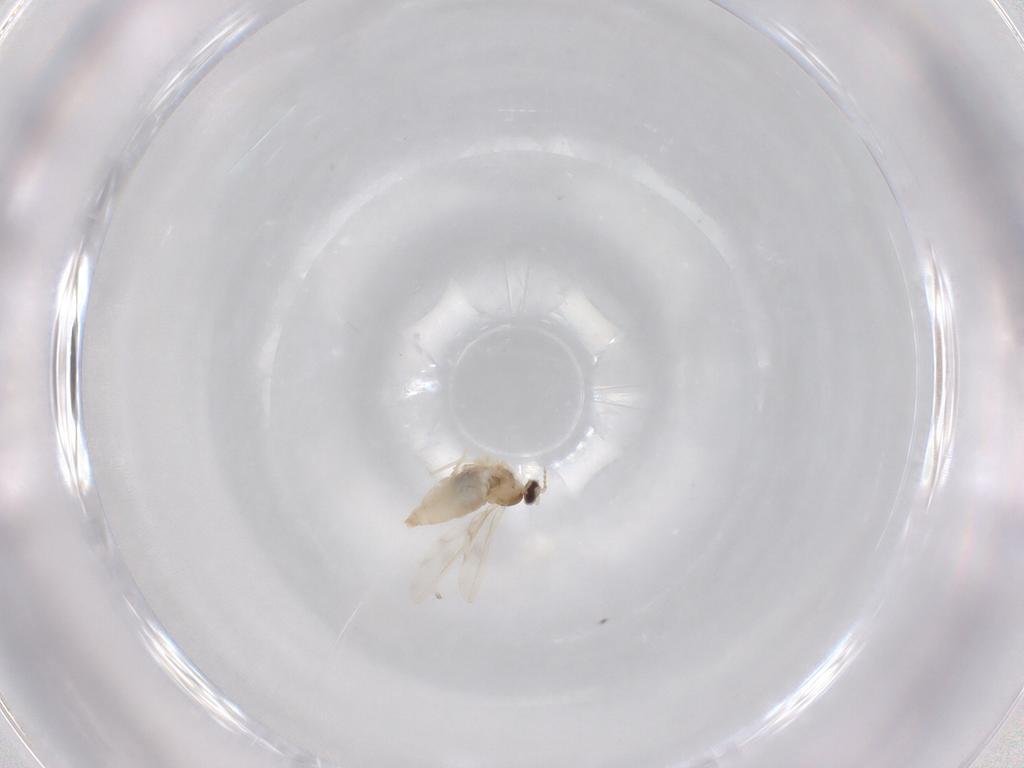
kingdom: Animalia
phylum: Arthropoda
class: Insecta
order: Diptera
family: Cecidomyiidae
